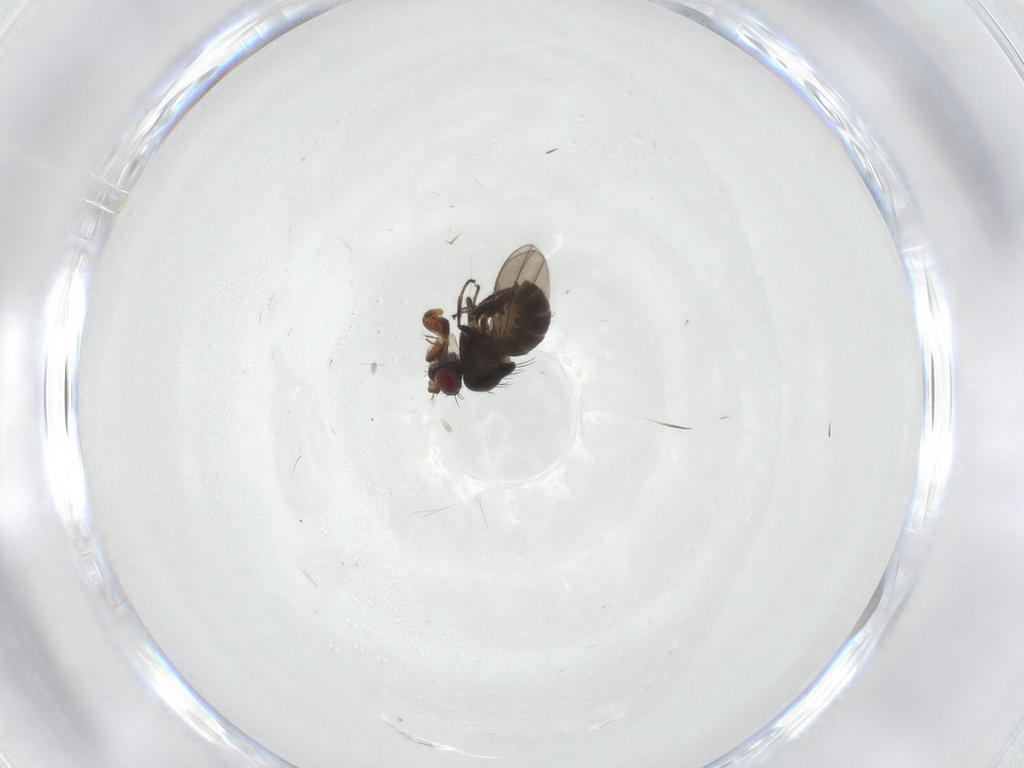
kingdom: Animalia
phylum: Arthropoda
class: Insecta
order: Diptera
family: Ephydridae
